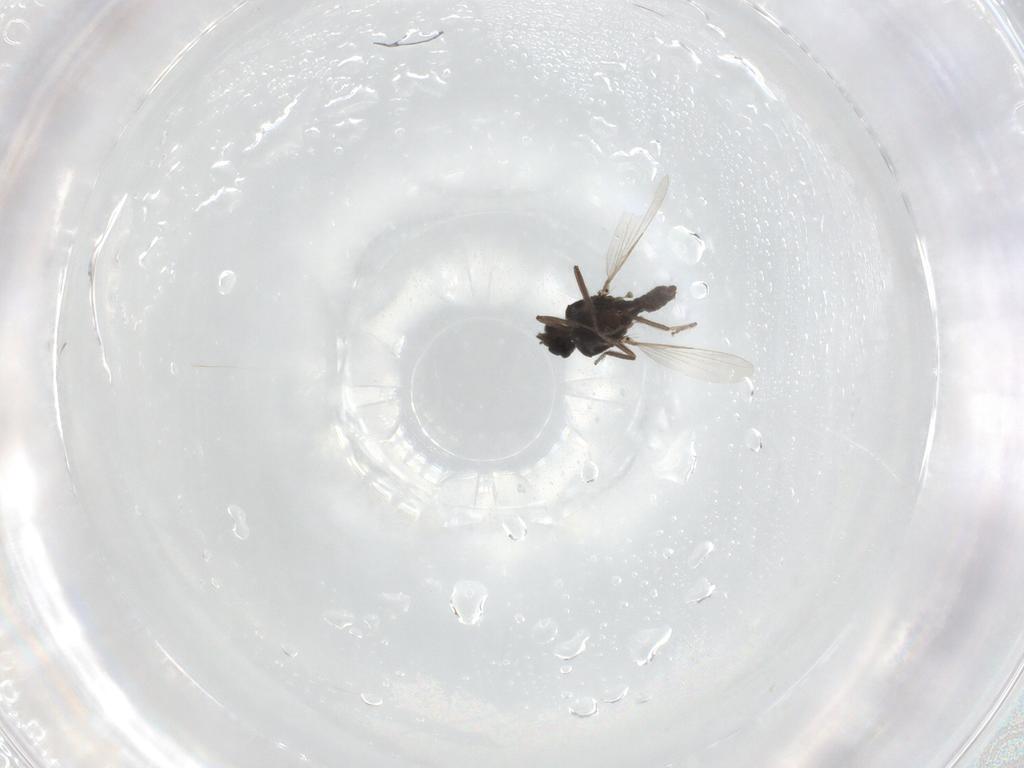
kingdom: Animalia
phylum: Arthropoda
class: Insecta
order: Diptera
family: Ceratopogonidae
